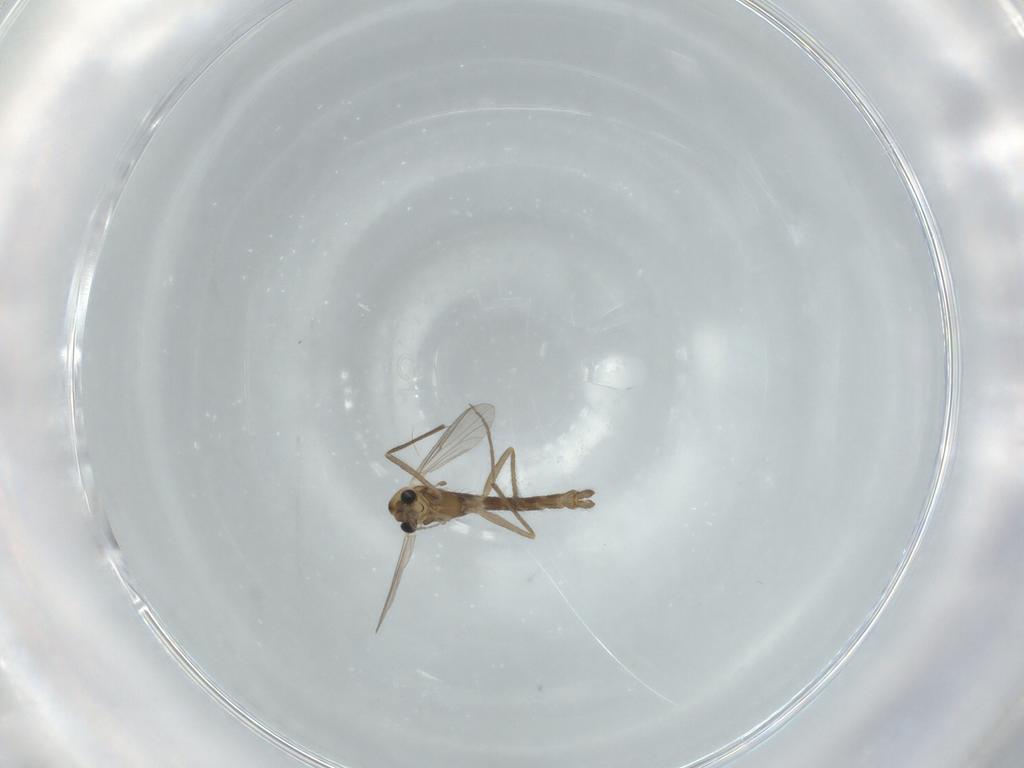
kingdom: Animalia
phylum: Arthropoda
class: Insecta
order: Diptera
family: Chironomidae
